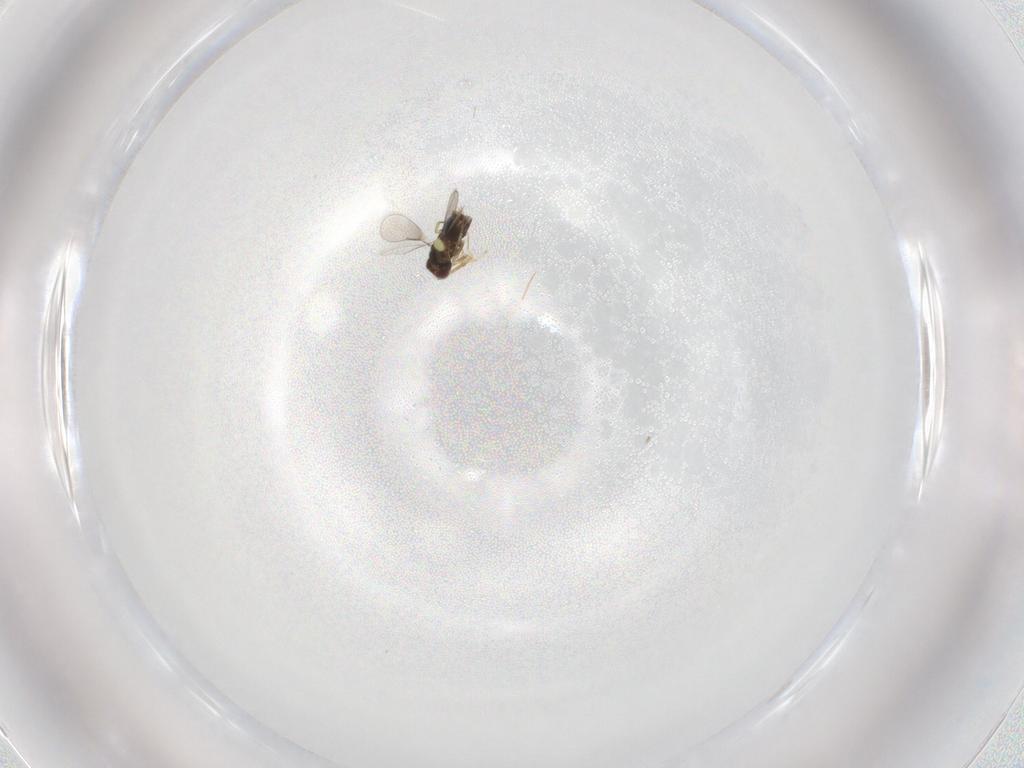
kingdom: Animalia
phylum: Arthropoda
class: Insecta
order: Hymenoptera
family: Aphelinidae
